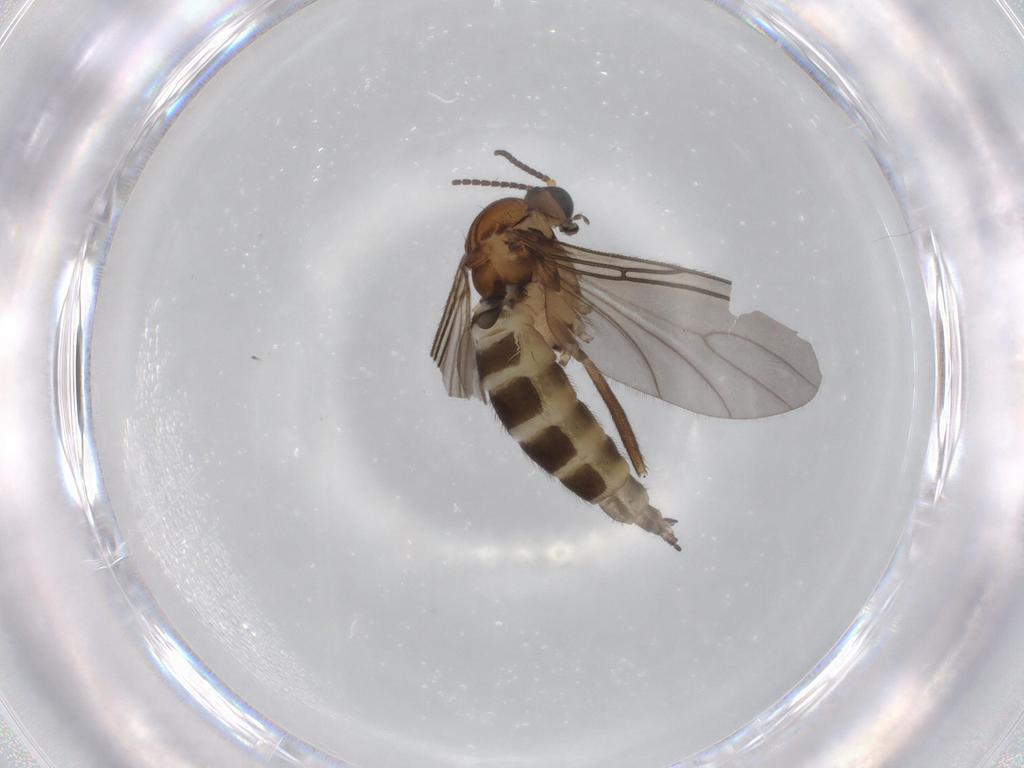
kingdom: Animalia
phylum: Arthropoda
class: Insecta
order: Diptera
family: Sciaridae
